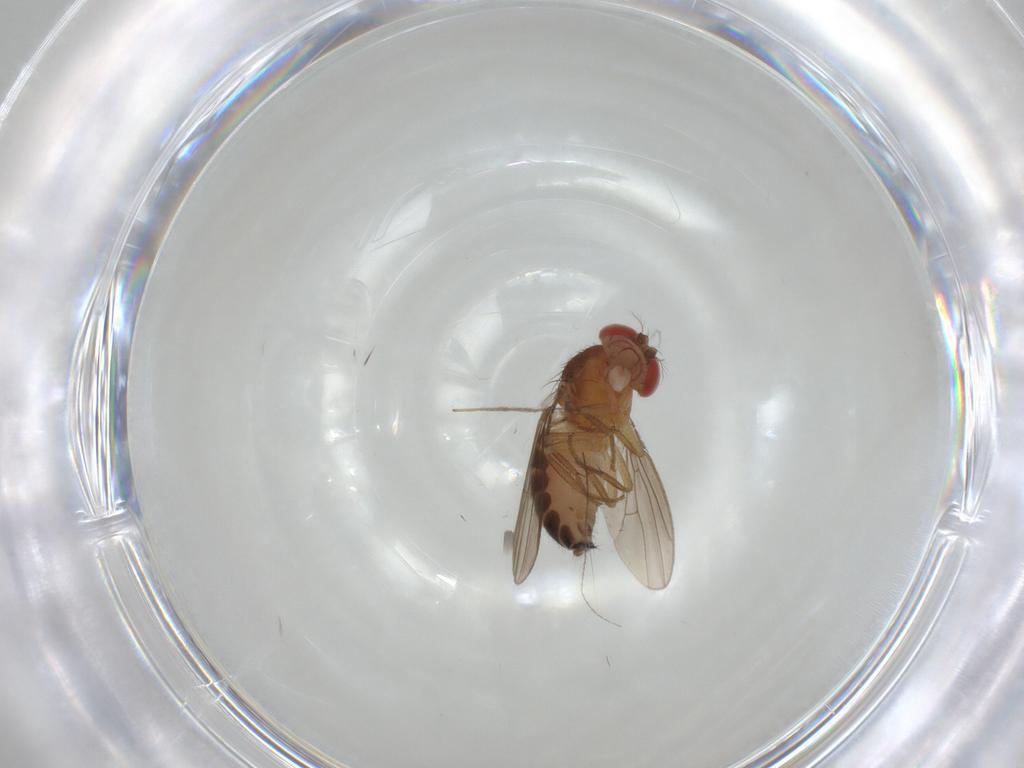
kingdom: Animalia
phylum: Arthropoda
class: Insecta
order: Diptera
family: Drosophilidae
